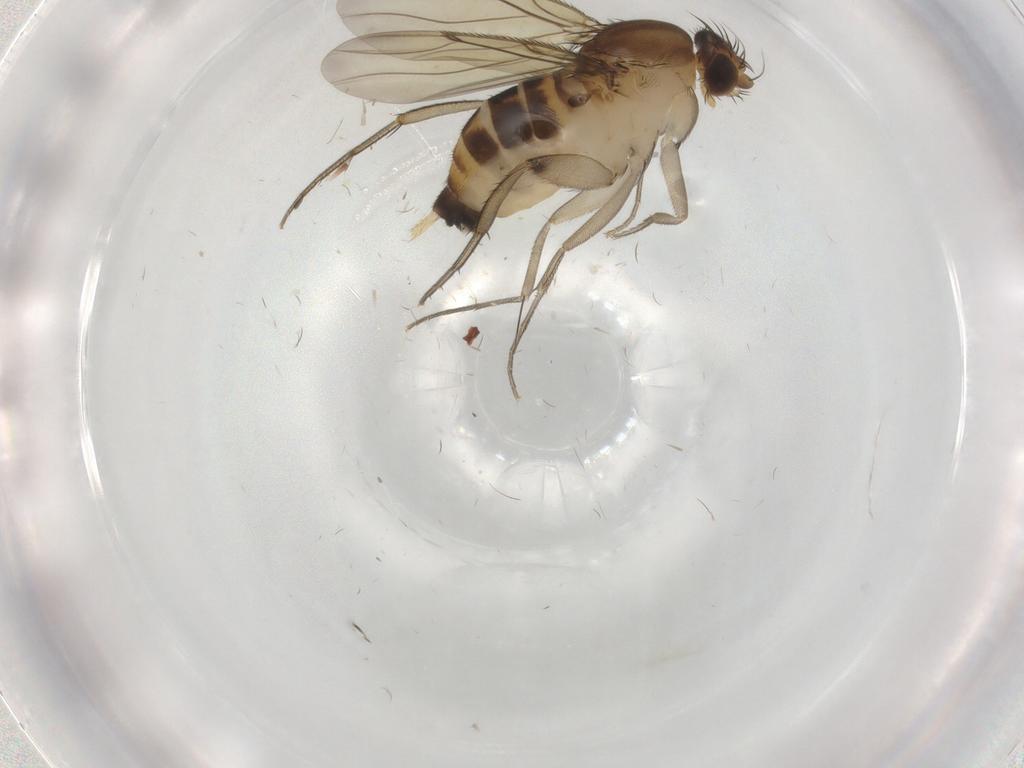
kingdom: Animalia
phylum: Arthropoda
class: Insecta
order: Diptera
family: Phoridae
